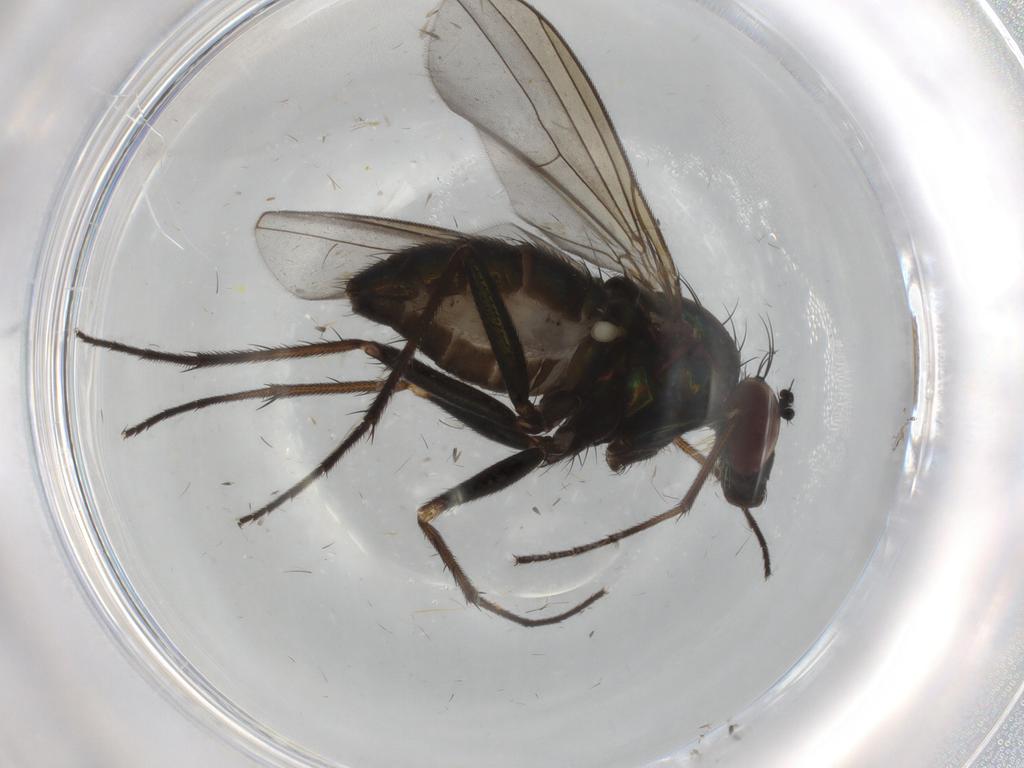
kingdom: Animalia
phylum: Arthropoda
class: Insecta
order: Diptera
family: Dolichopodidae
